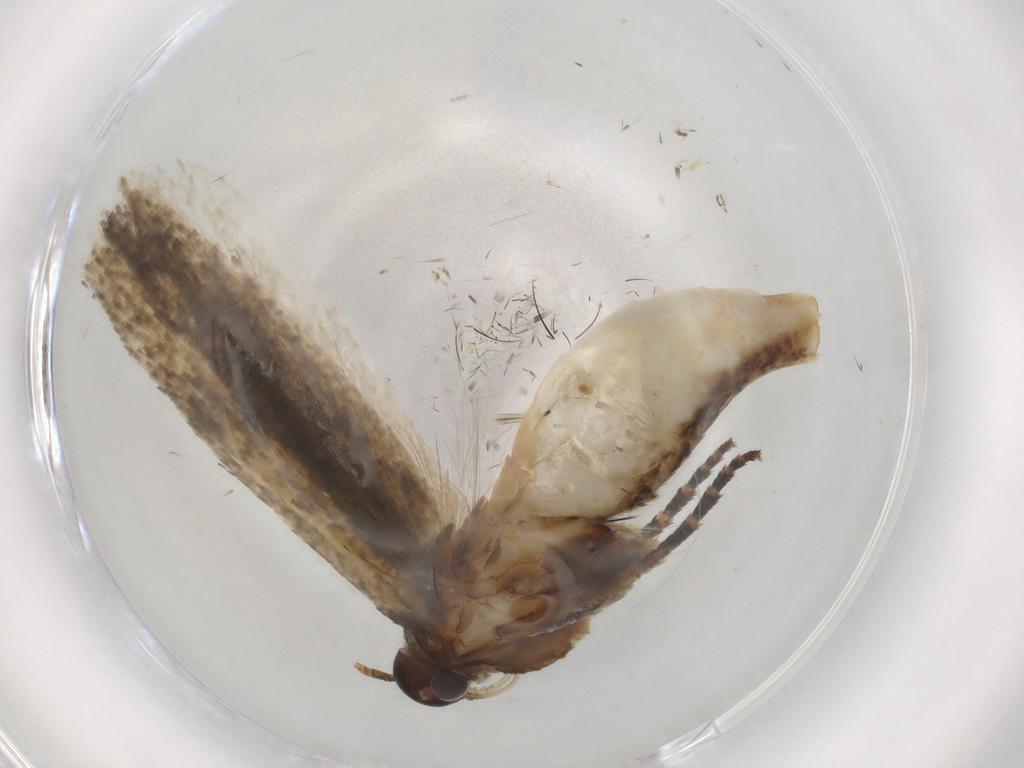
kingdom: Animalia
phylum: Arthropoda
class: Insecta
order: Lepidoptera
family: Gelechiidae
